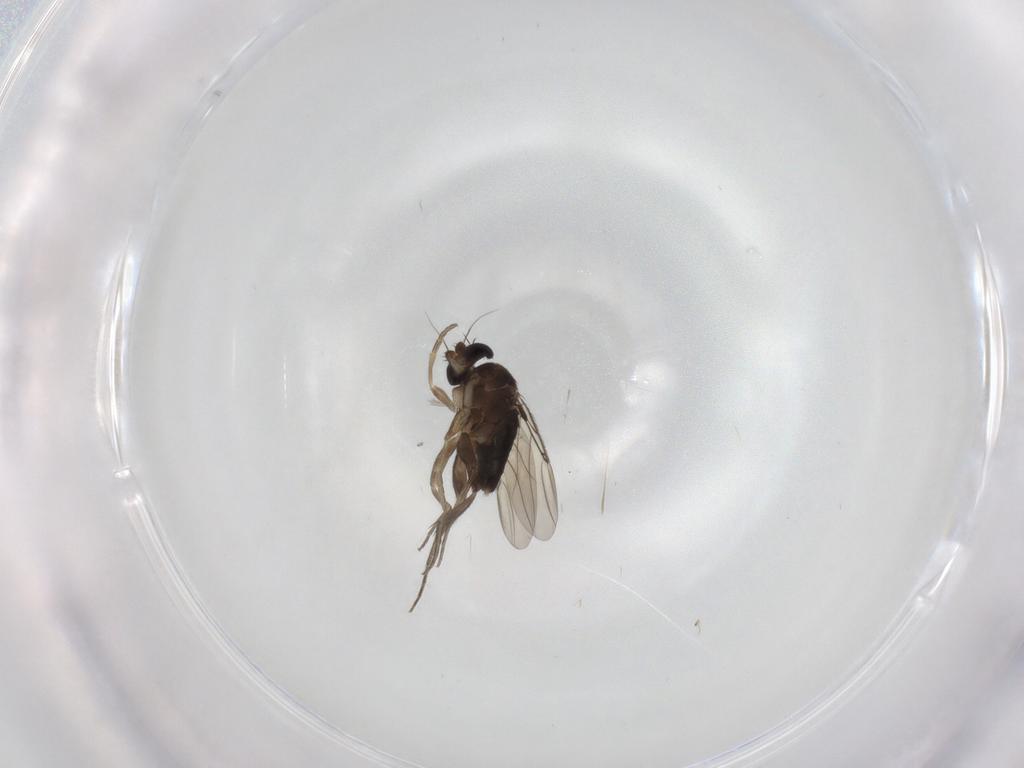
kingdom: Animalia
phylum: Arthropoda
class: Insecta
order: Diptera
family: Phoridae
